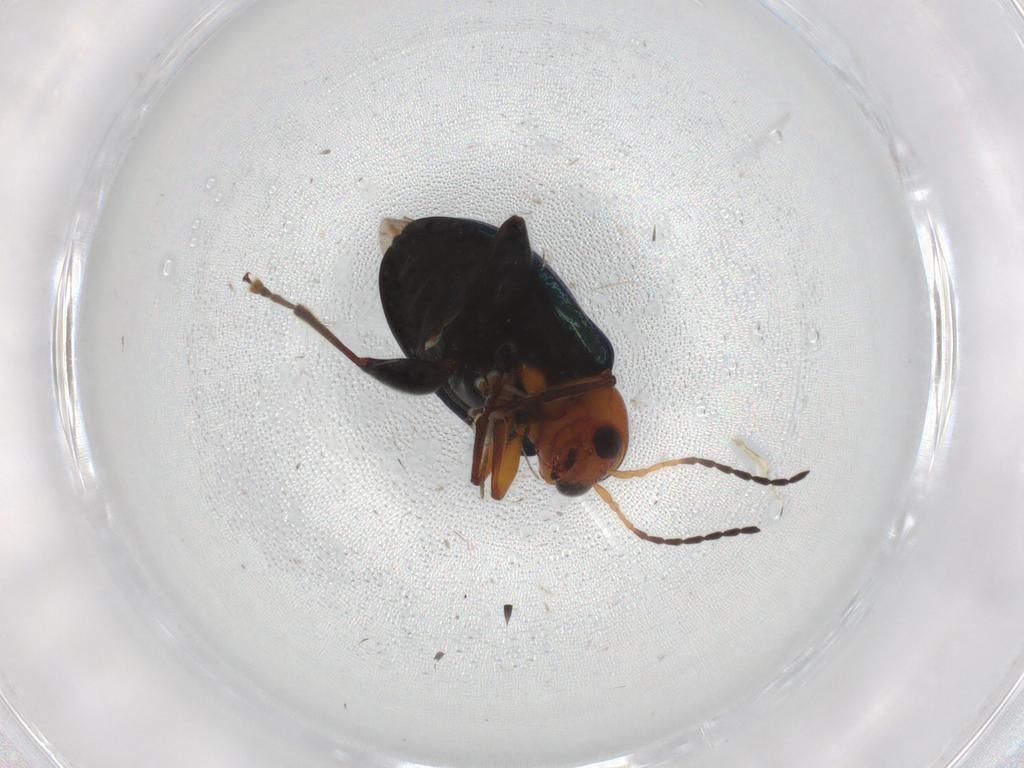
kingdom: Animalia
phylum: Arthropoda
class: Insecta
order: Coleoptera
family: Chrysomelidae
